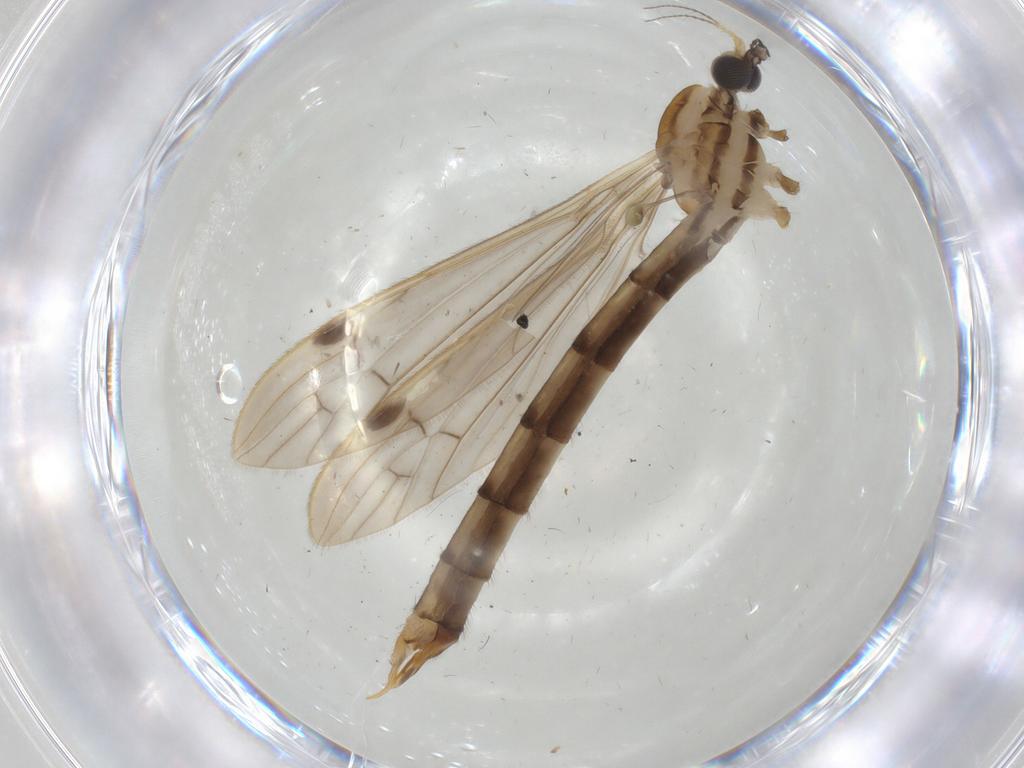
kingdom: Animalia
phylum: Arthropoda
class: Insecta
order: Diptera
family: Limoniidae
